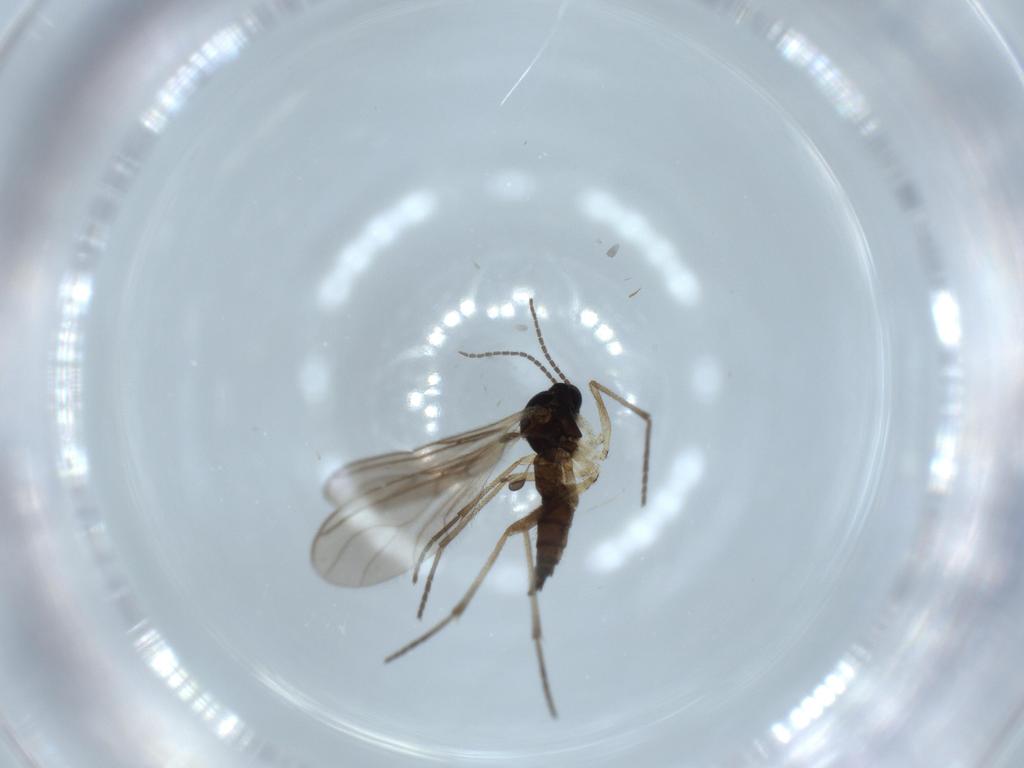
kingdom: Animalia
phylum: Arthropoda
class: Insecta
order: Diptera
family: Sciaridae
